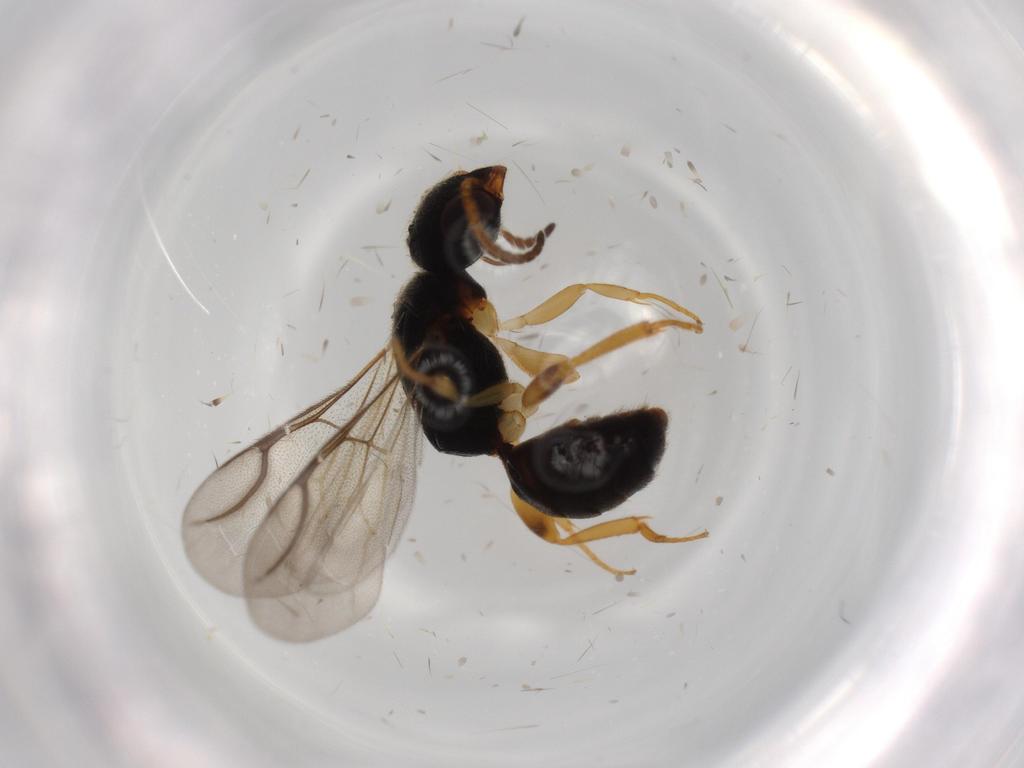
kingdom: Animalia
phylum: Arthropoda
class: Insecta
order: Hymenoptera
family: Bethylidae
